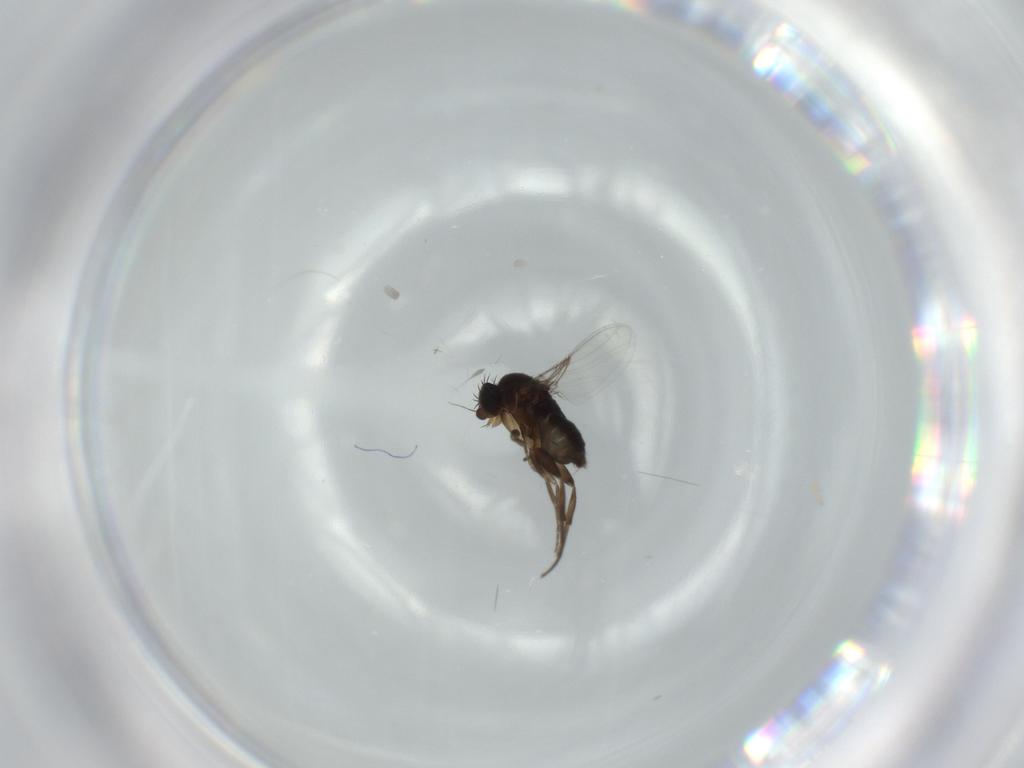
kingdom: Animalia
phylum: Arthropoda
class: Insecta
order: Diptera
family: Phoridae
